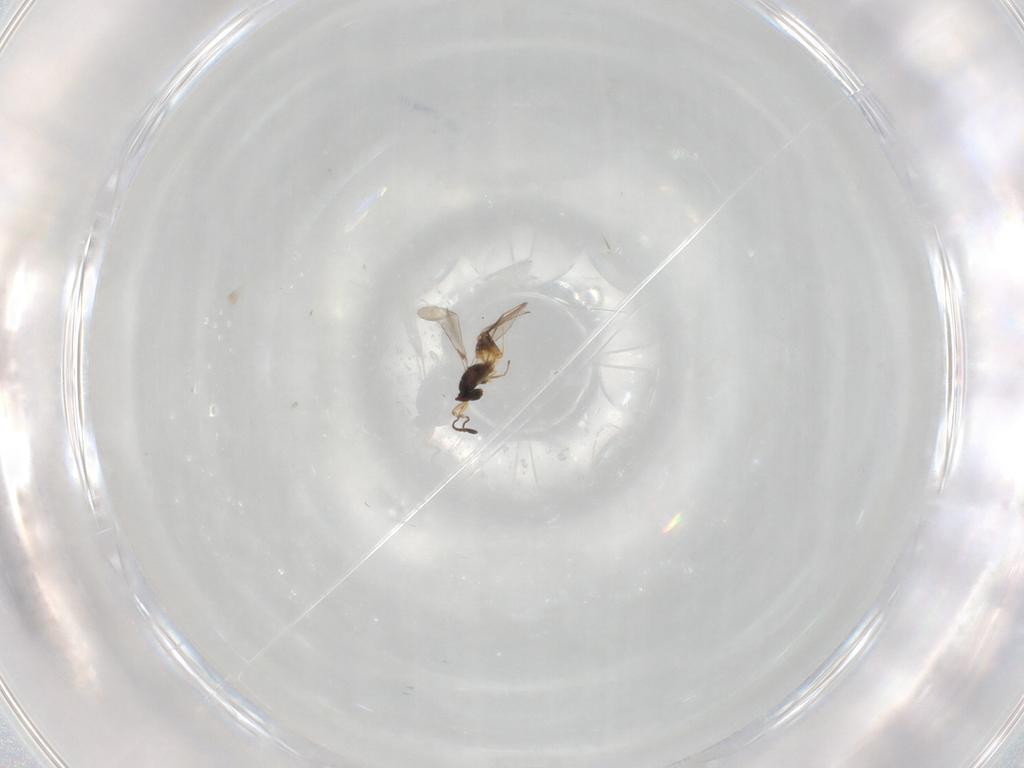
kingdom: Animalia
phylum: Arthropoda
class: Insecta
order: Hymenoptera
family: Mymaridae
